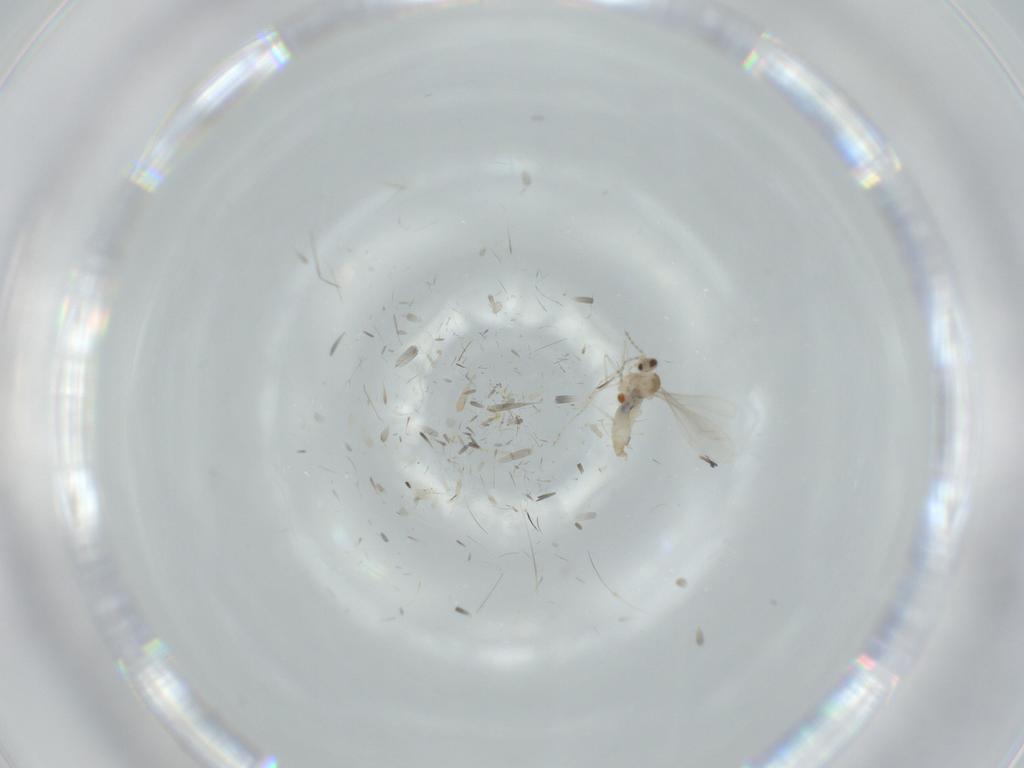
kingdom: Animalia
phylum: Arthropoda
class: Insecta
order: Diptera
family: Cecidomyiidae
